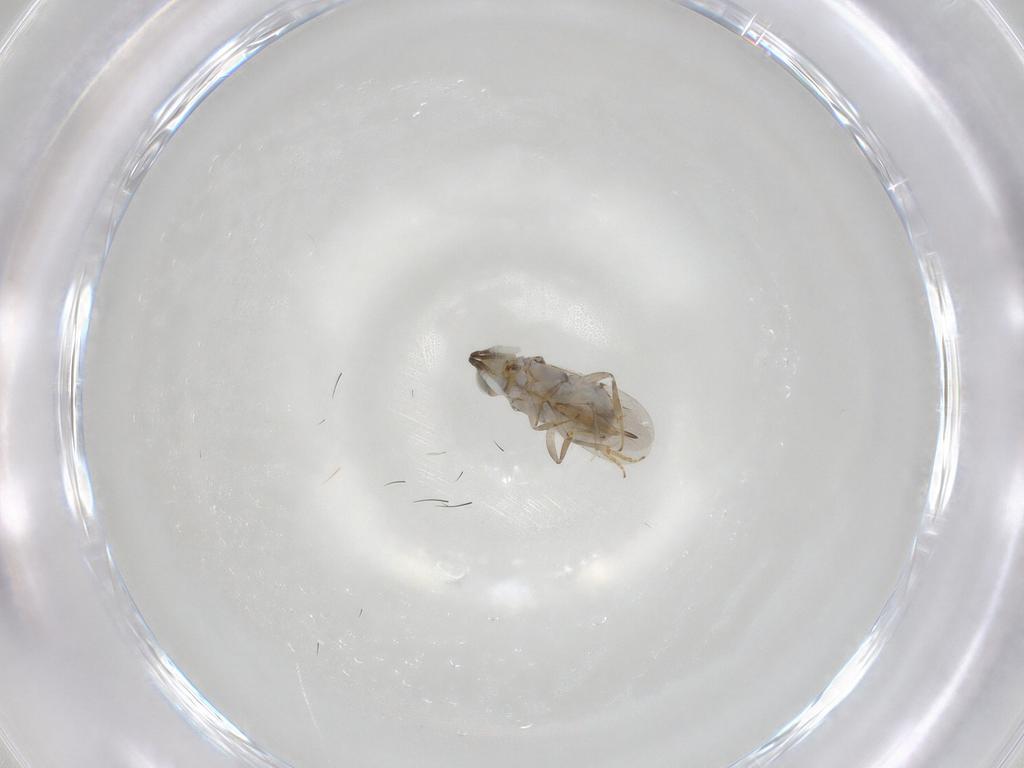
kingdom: Animalia
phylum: Arthropoda
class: Insecta
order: Hymenoptera
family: Encyrtidae
